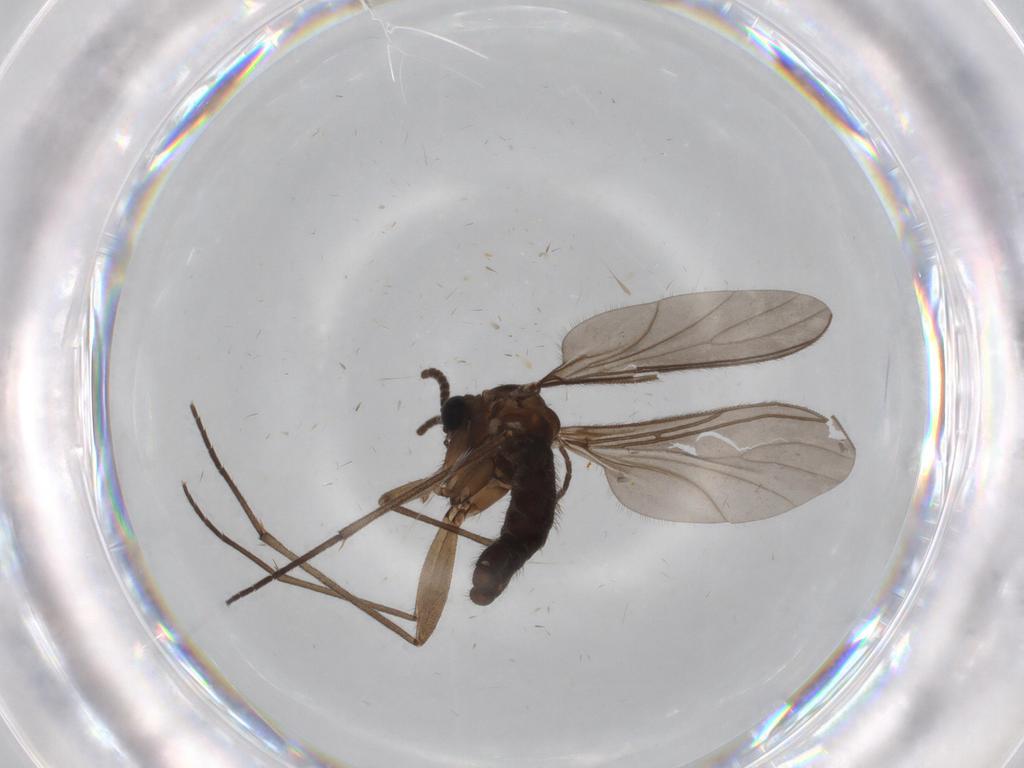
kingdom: Animalia
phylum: Arthropoda
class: Insecta
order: Diptera
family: Sciaridae
